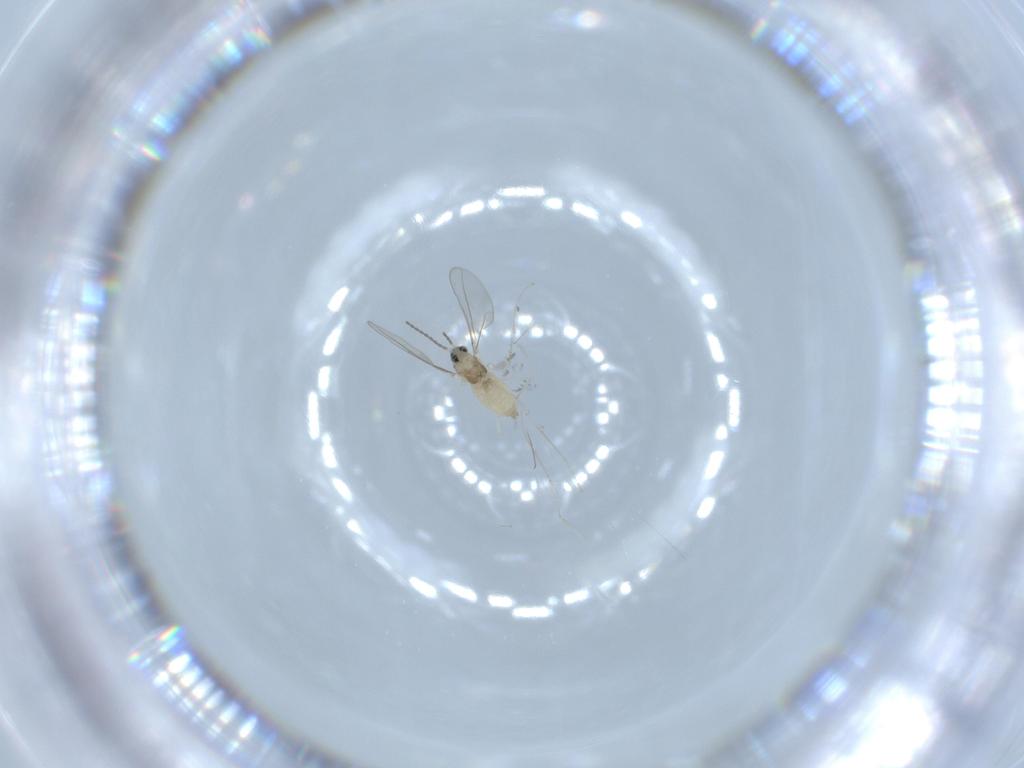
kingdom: Animalia
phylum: Arthropoda
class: Insecta
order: Diptera
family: Cecidomyiidae
